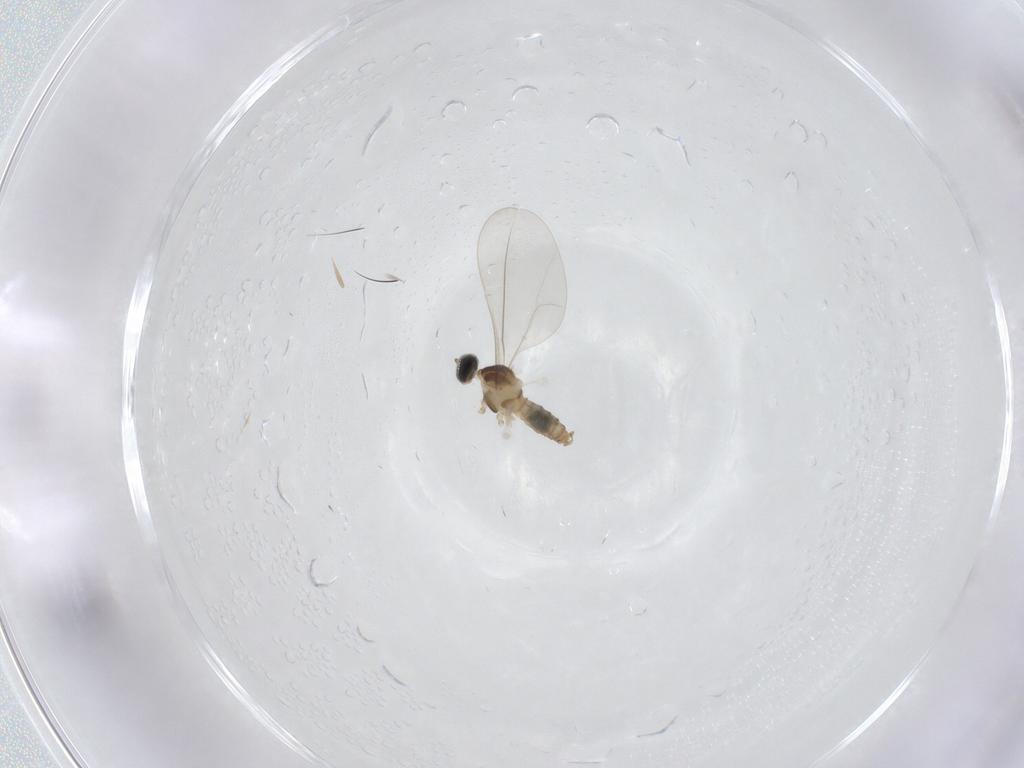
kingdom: Animalia
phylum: Arthropoda
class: Insecta
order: Diptera
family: Cecidomyiidae
